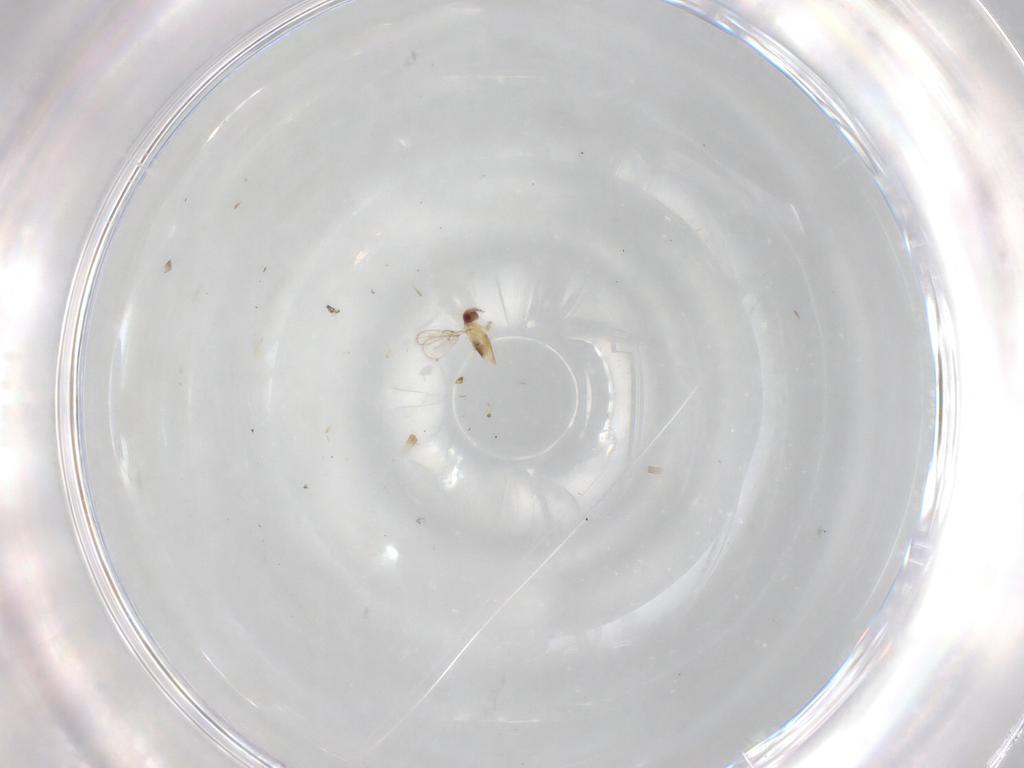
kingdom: Animalia
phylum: Arthropoda
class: Insecta
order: Hymenoptera
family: Trichogrammatidae
